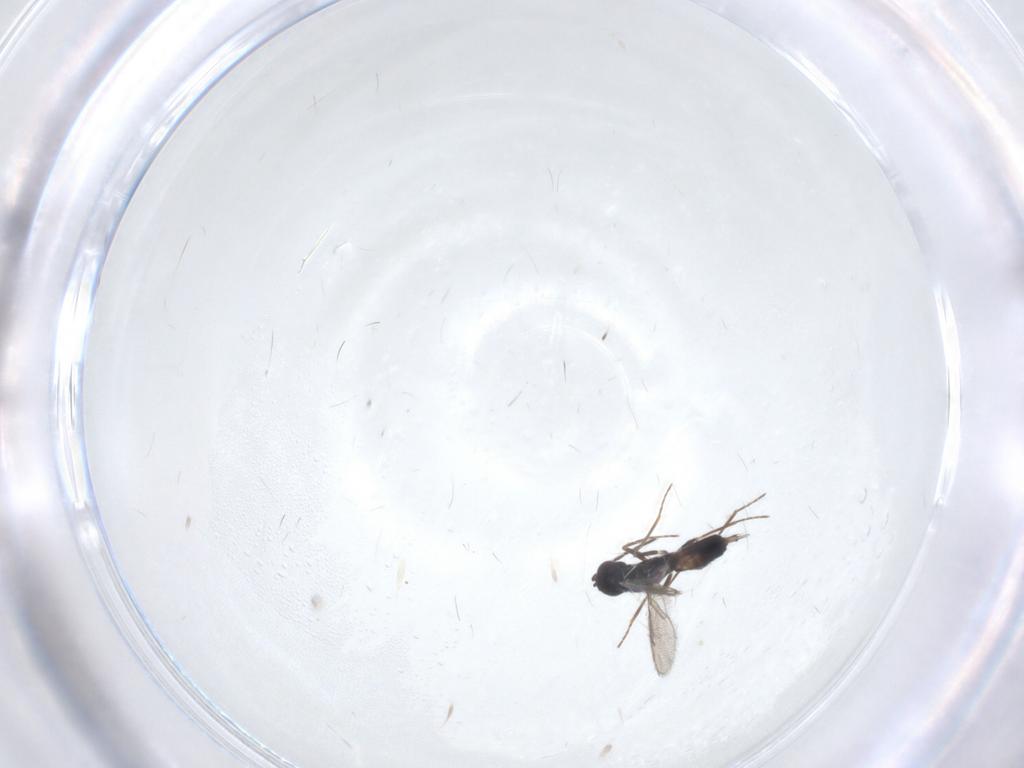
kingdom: Animalia
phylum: Arthropoda
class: Insecta
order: Hymenoptera
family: Eulophidae
